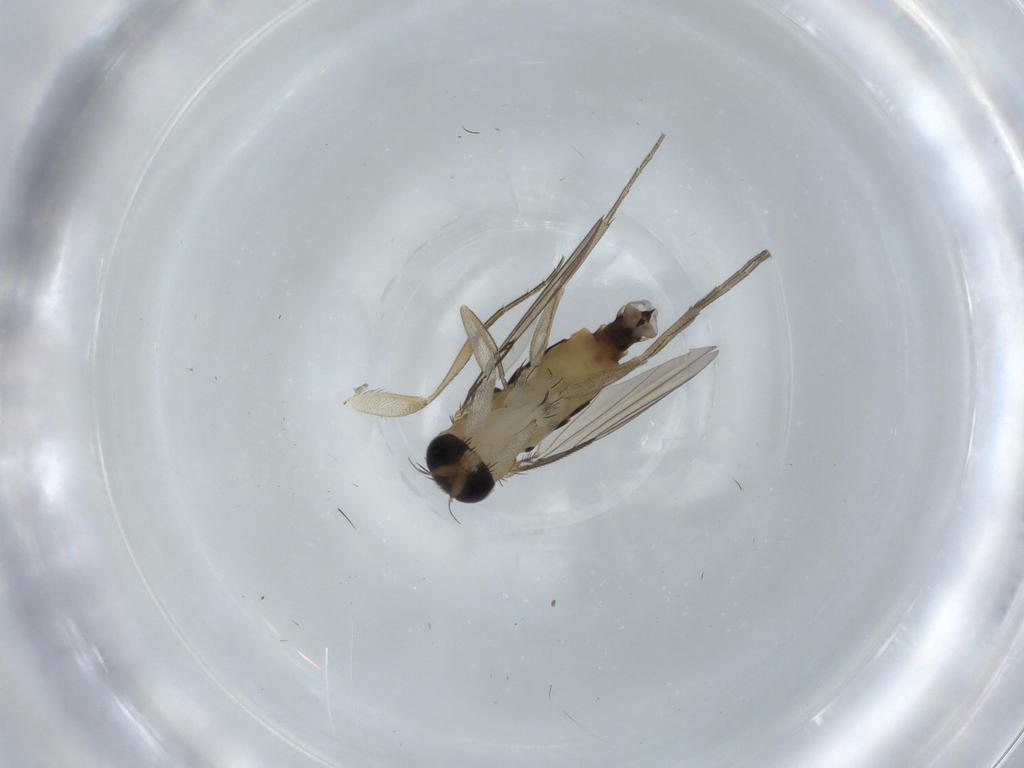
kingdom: Animalia
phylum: Arthropoda
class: Insecta
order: Diptera
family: Phoridae
